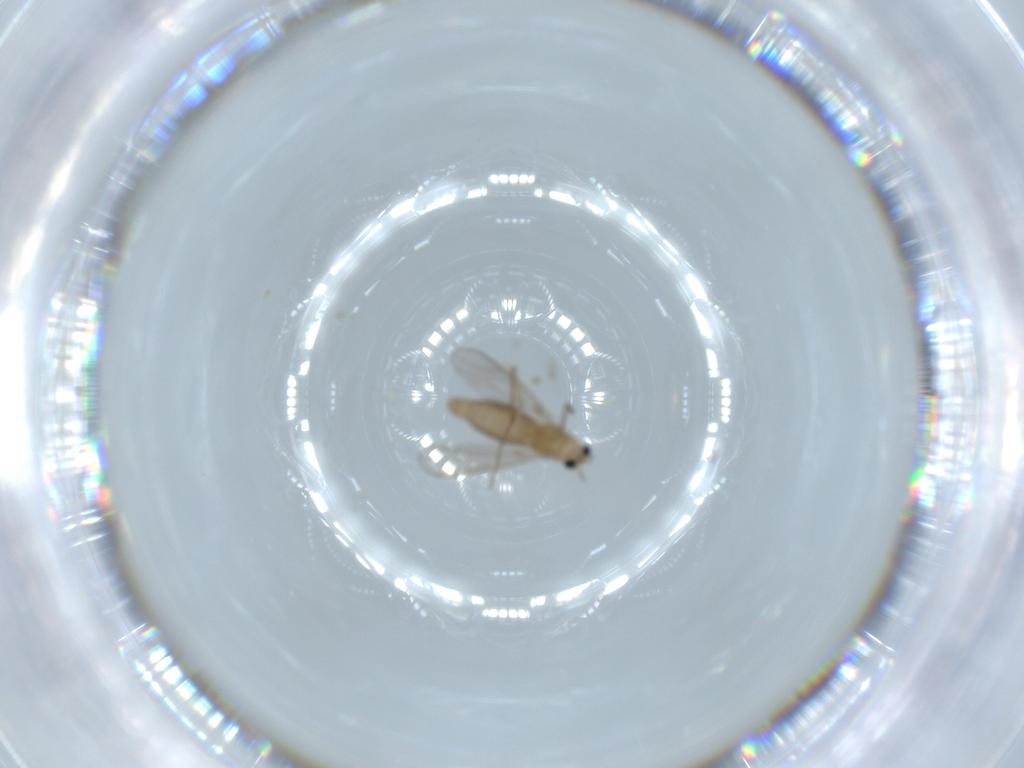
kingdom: Animalia
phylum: Arthropoda
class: Insecta
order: Diptera
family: Chironomidae
